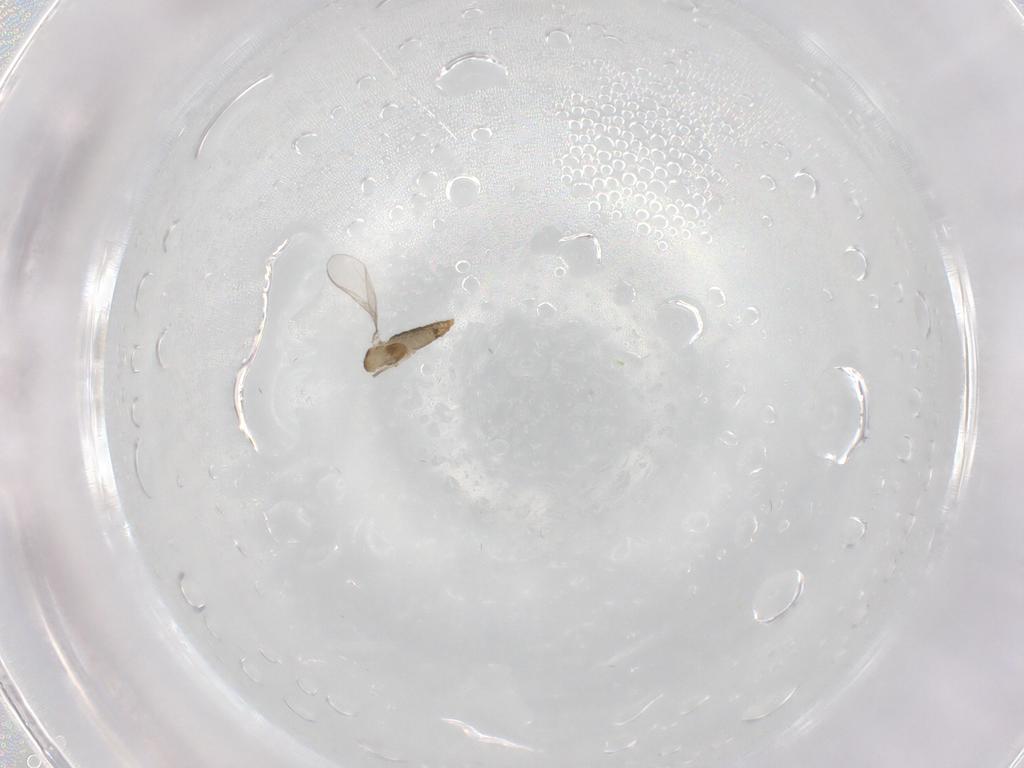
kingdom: Animalia
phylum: Arthropoda
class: Insecta
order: Diptera
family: Chironomidae
